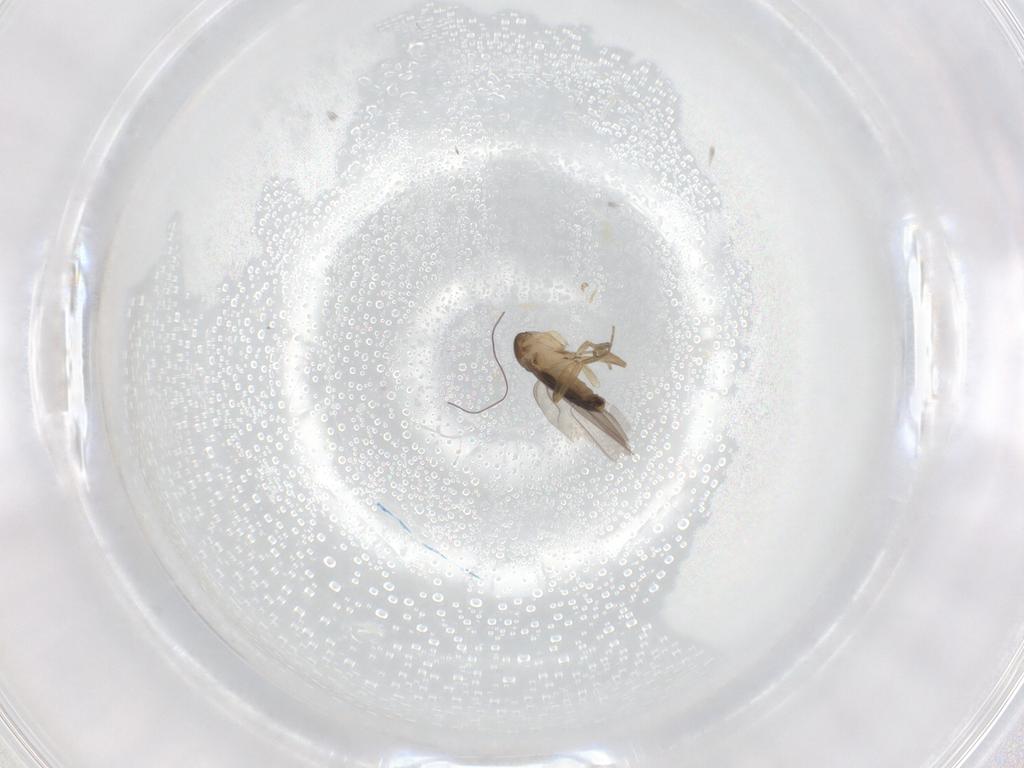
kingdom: Animalia
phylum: Arthropoda
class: Insecta
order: Diptera
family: Phoridae
